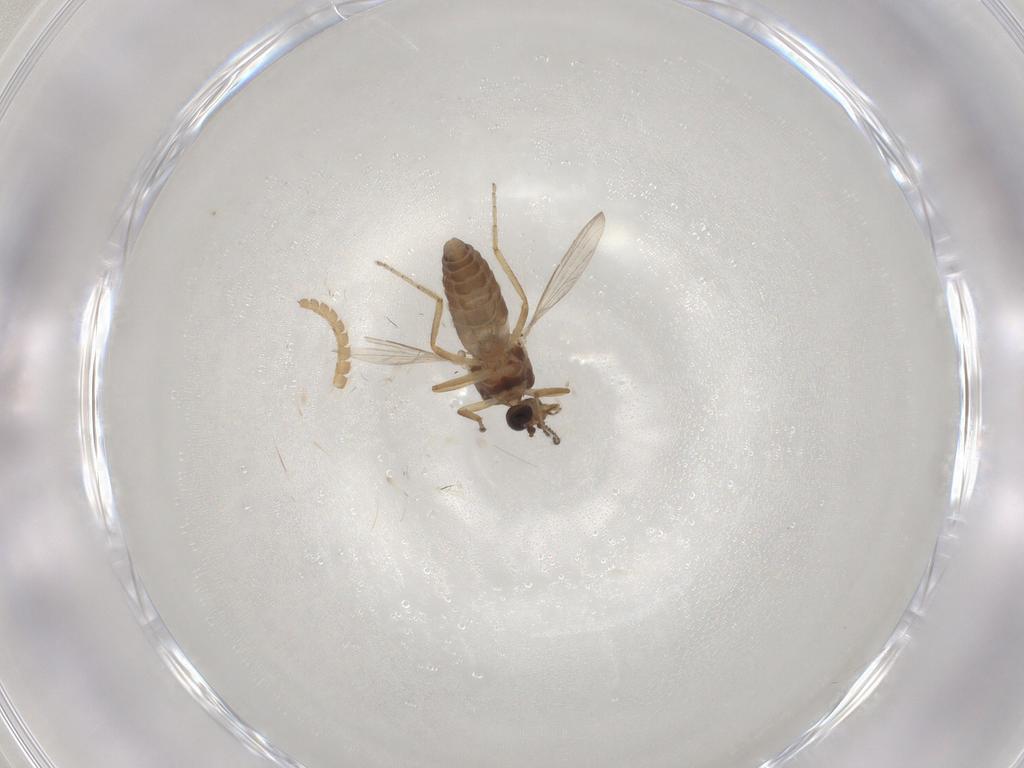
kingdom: Animalia
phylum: Arthropoda
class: Insecta
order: Diptera
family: Ceratopogonidae
